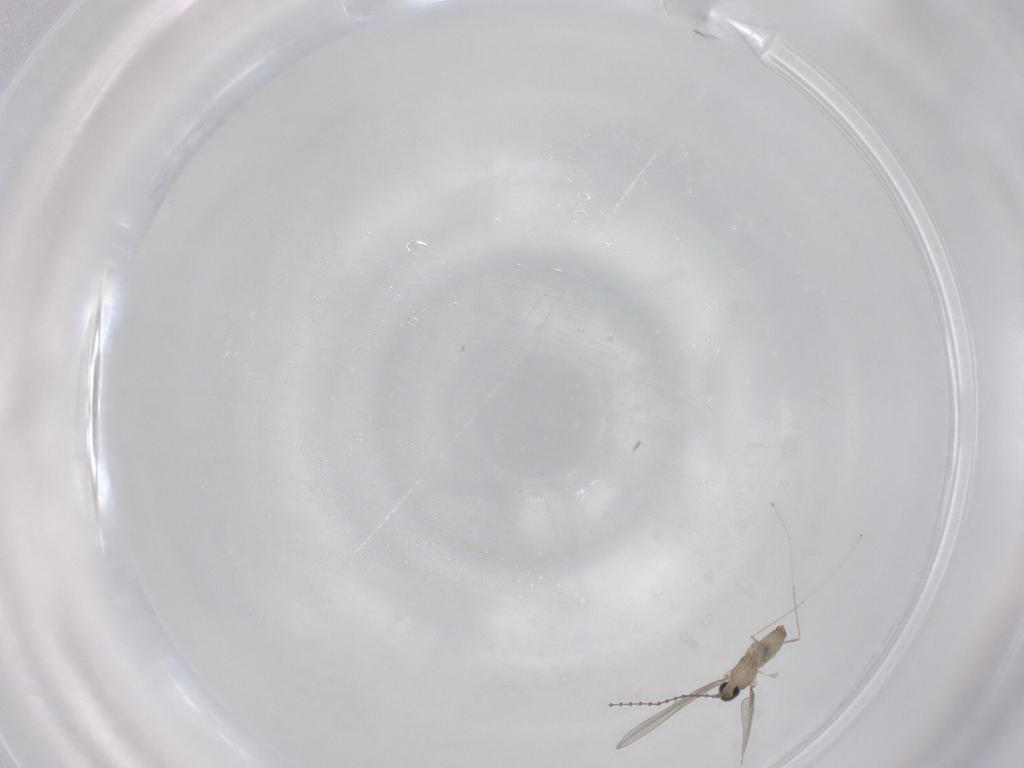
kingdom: Animalia
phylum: Arthropoda
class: Insecta
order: Diptera
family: Cecidomyiidae
